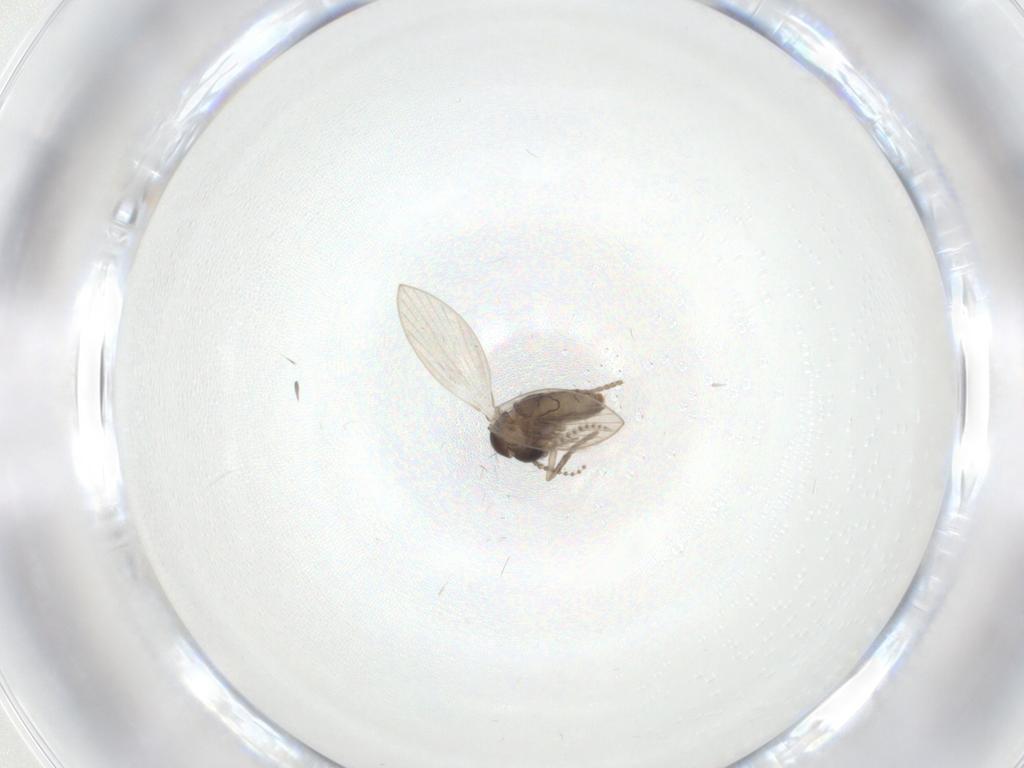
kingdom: Animalia
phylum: Arthropoda
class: Insecta
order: Diptera
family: Psychodidae
